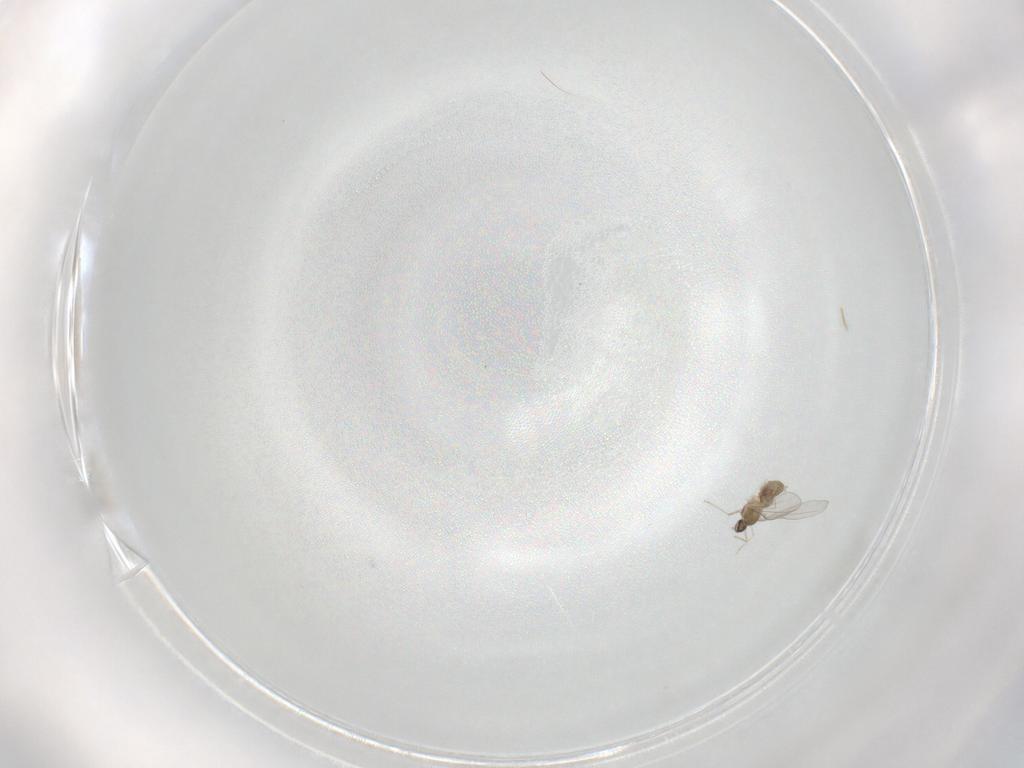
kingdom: Animalia
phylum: Arthropoda
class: Insecta
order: Diptera
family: Cecidomyiidae
